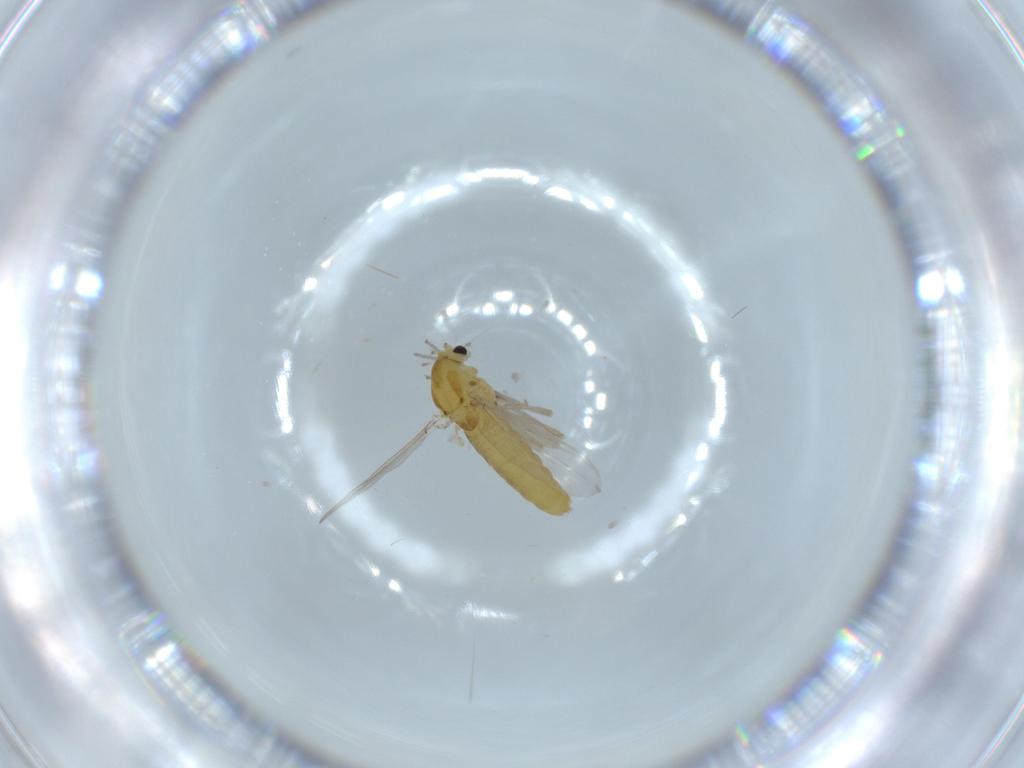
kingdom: Animalia
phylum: Arthropoda
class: Insecta
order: Diptera
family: Chironomidae
